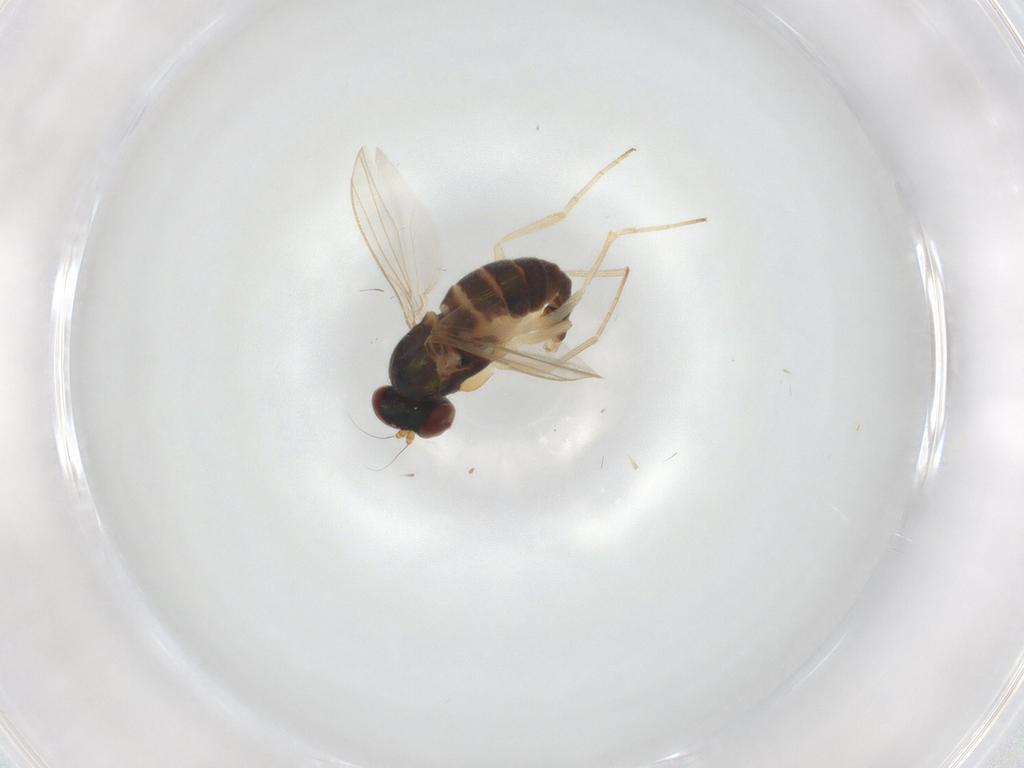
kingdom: Animalia
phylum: Arthropoda
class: Insecta
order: Diptera
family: Dolichopodidae
